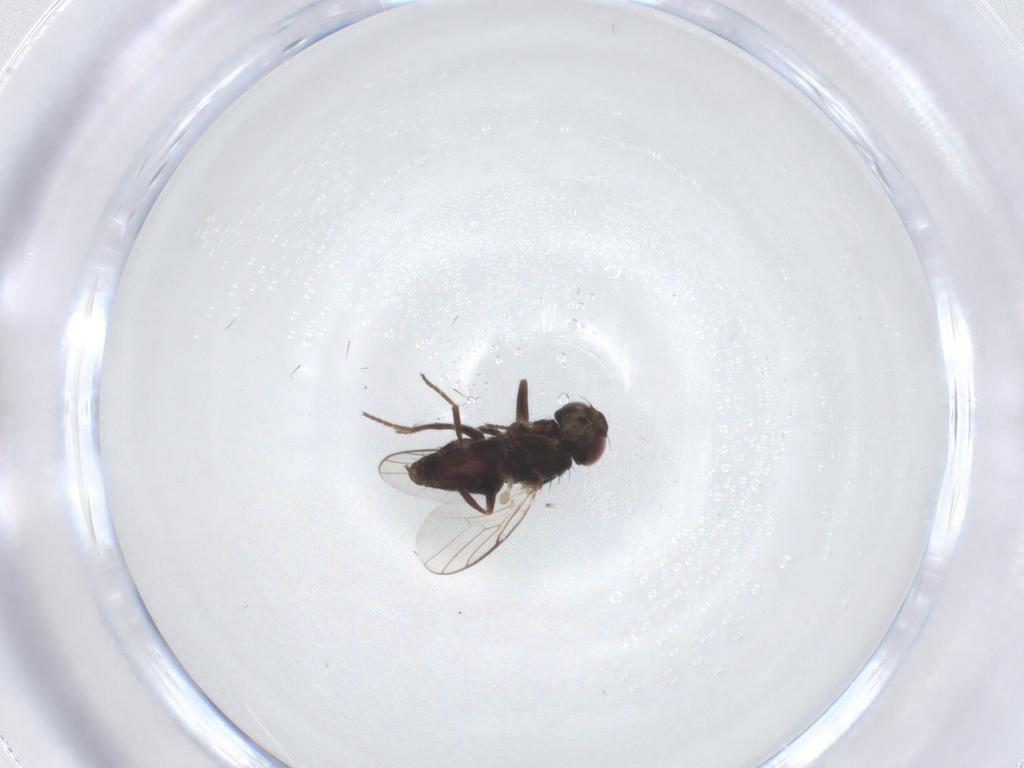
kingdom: Animalia
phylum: Arthropoda
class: Insecta
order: Diptera
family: Chloropidae
